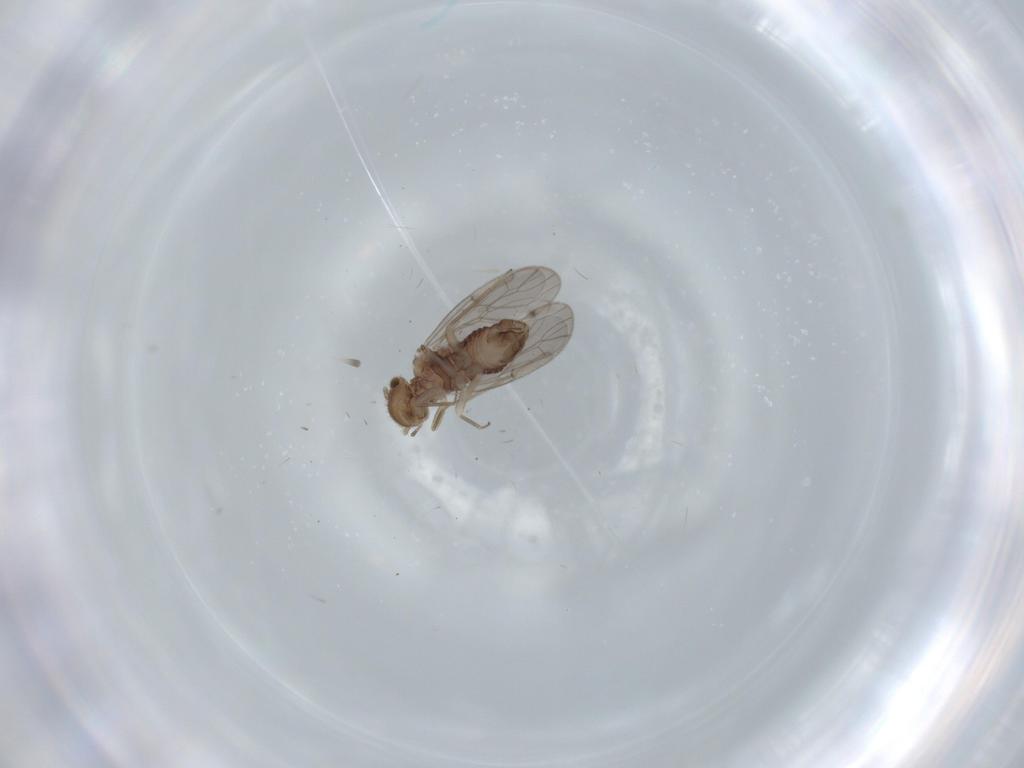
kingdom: Animalia
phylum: Arthropoda
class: Insecta
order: Psocodea
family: Ectopsocidae
